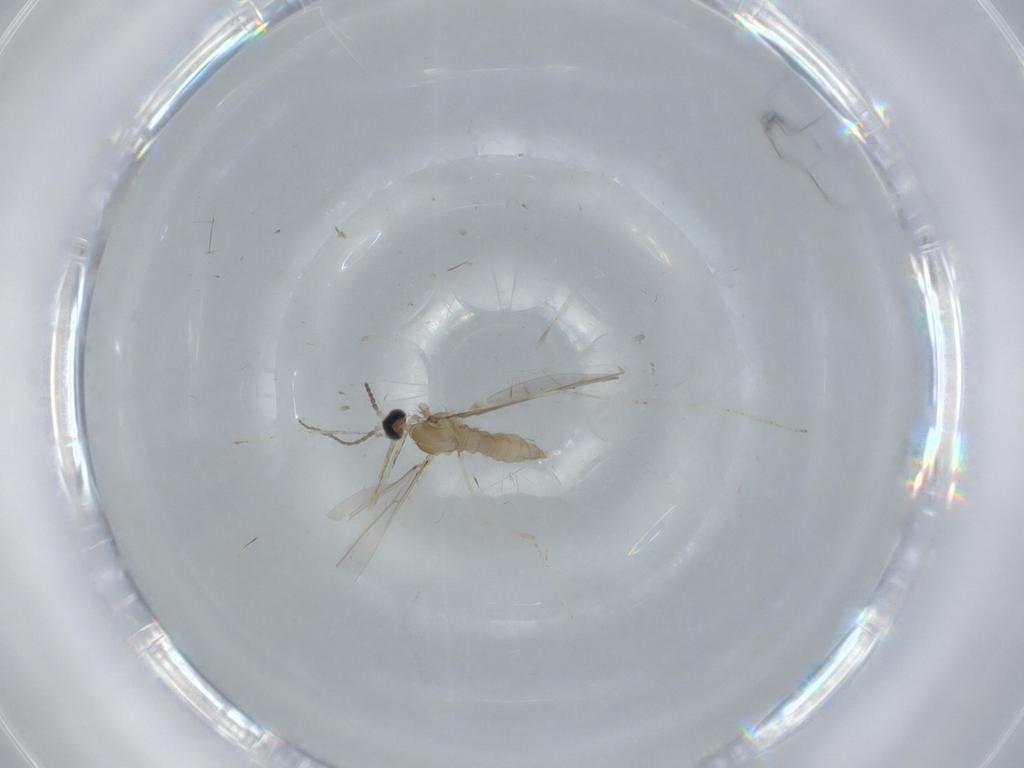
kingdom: Animalia
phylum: Arthropoda
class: Insecta
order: Diptera
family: Cecidomyiidae
